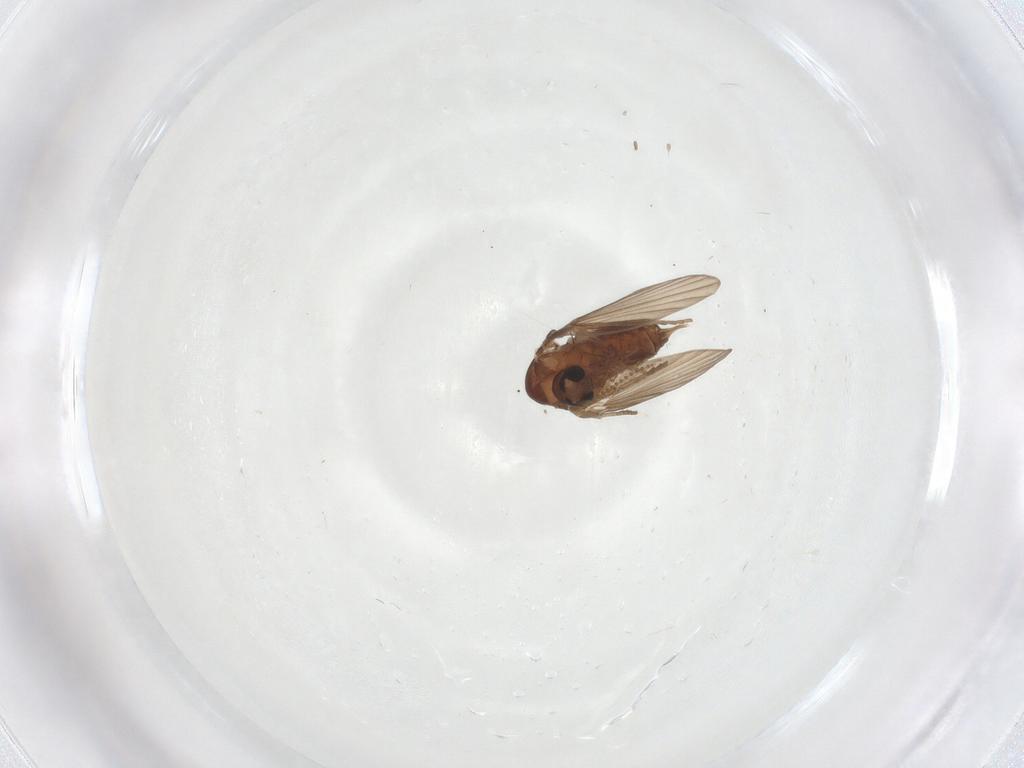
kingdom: Animalia
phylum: Arthropoda
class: Insecta
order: Diptera
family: Psychodidae
